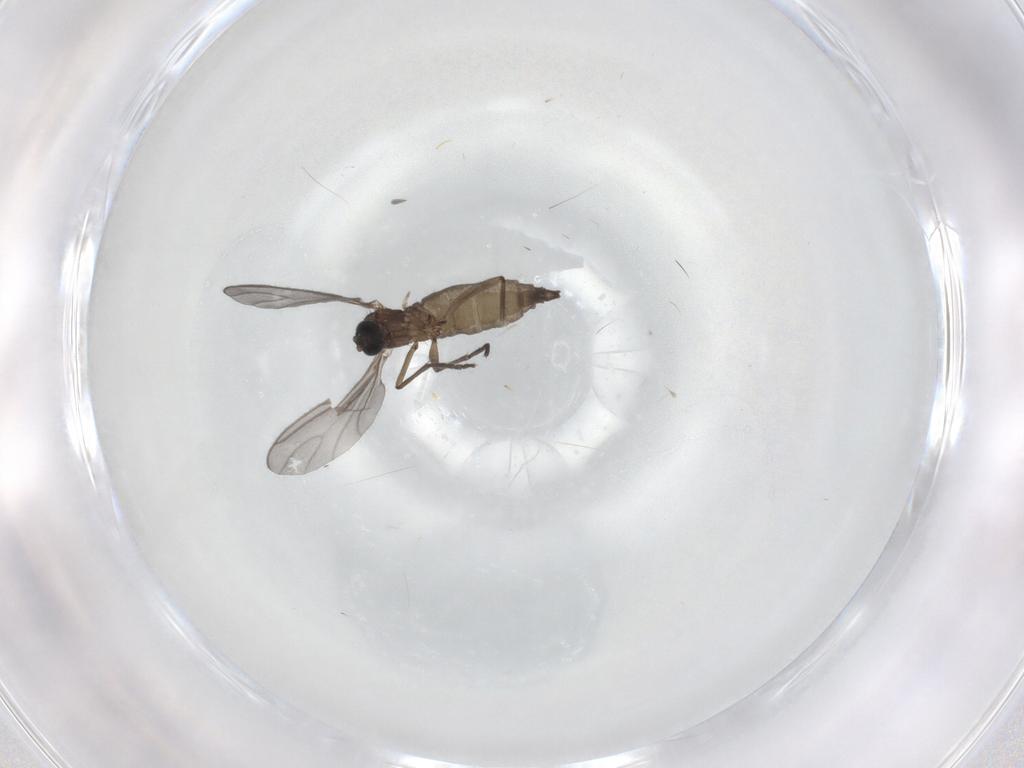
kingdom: Animalia
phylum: Arthropoda
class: Insecta
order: Diptera
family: Sciaridae
